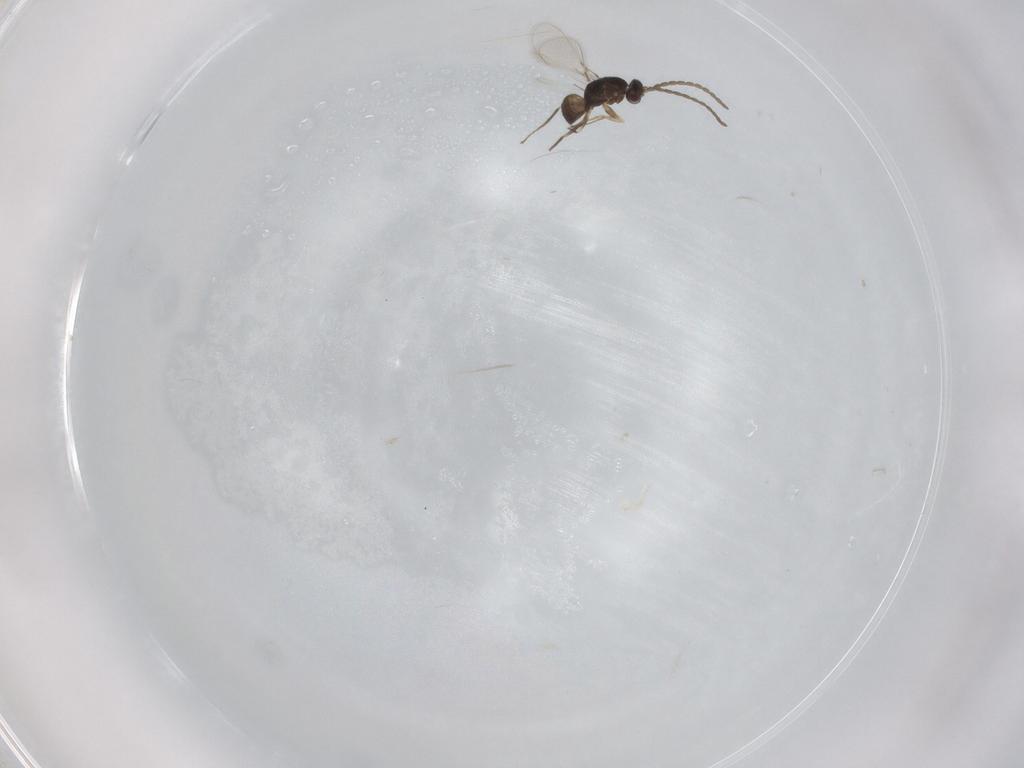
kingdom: Animalia
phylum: Arthropoda
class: Insecta
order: Hymenoptera
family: Mymaridae
